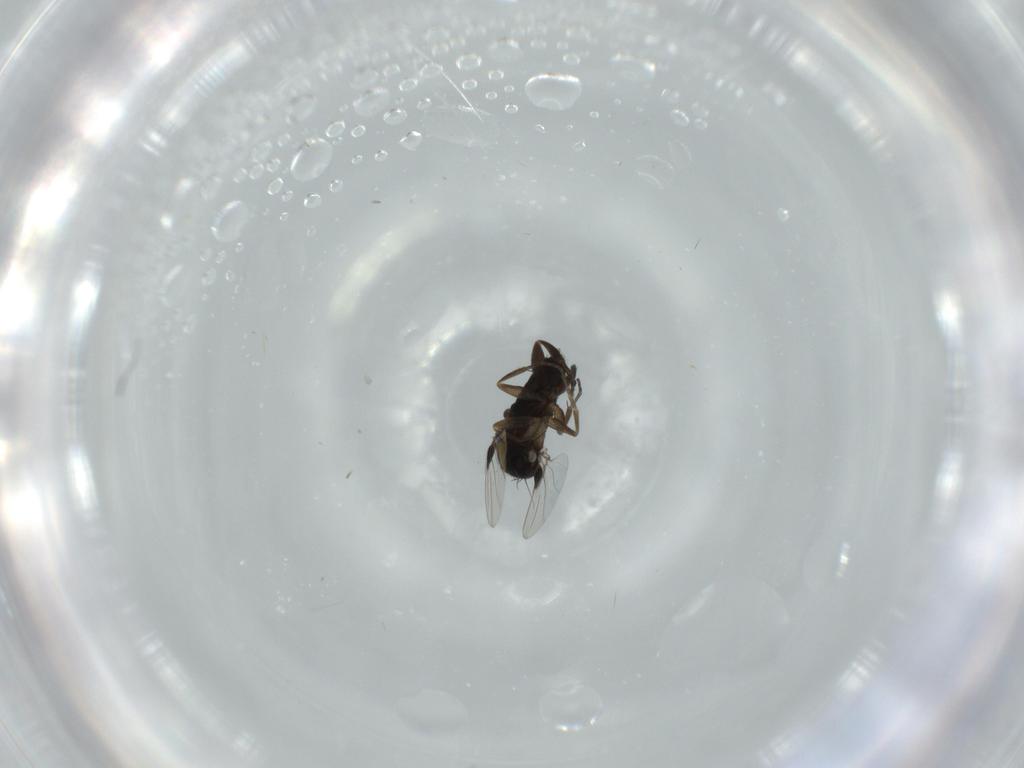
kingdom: Animalia
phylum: Arthropoda
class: Insecta
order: Diptera
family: Phoridae
